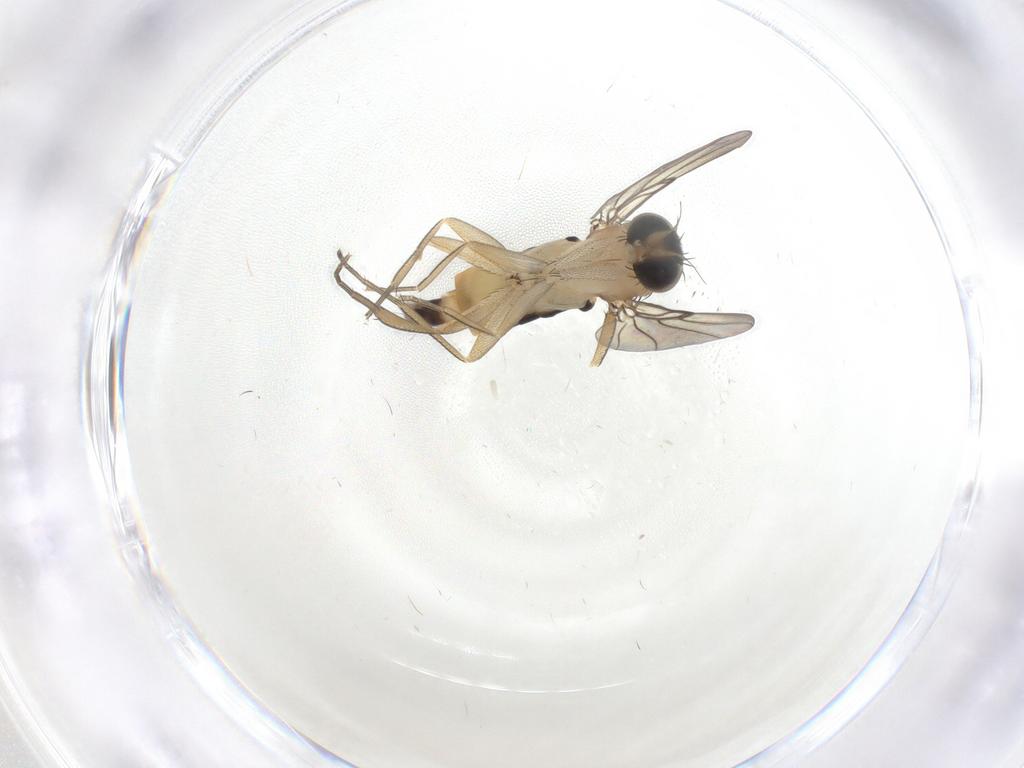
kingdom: Animalia
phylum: Arthropoda
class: Insecta
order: Diptera
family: Phoridae
